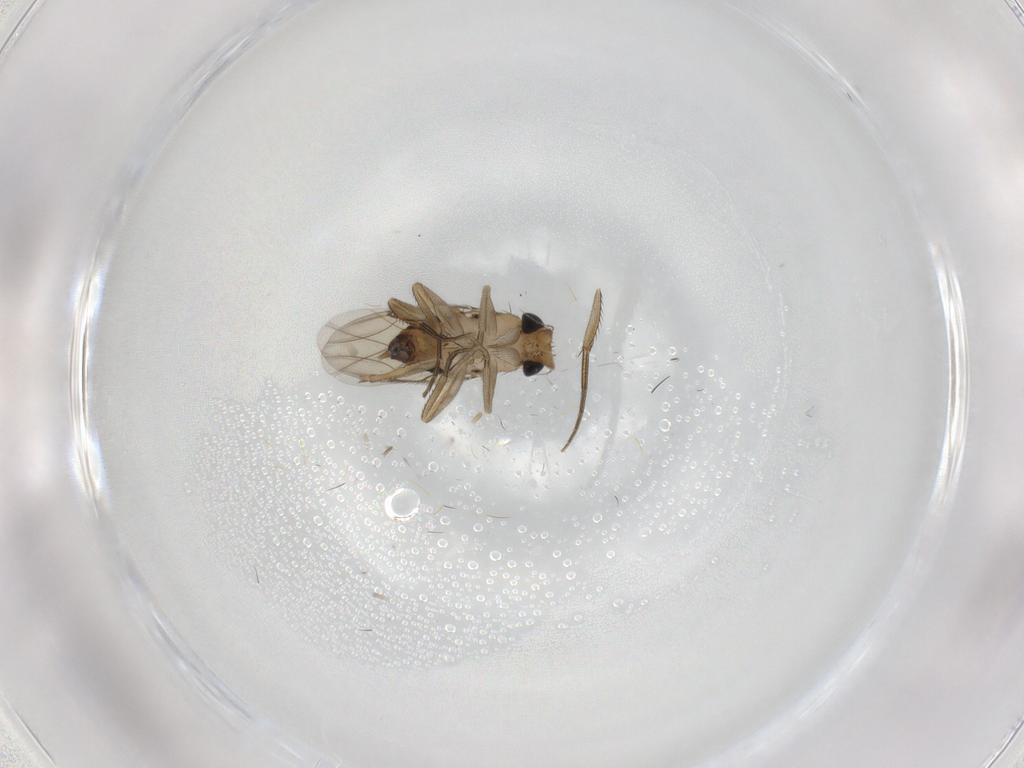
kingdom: Animalia
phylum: Arthropoda
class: Insecta
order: Diptera
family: Phoridae
